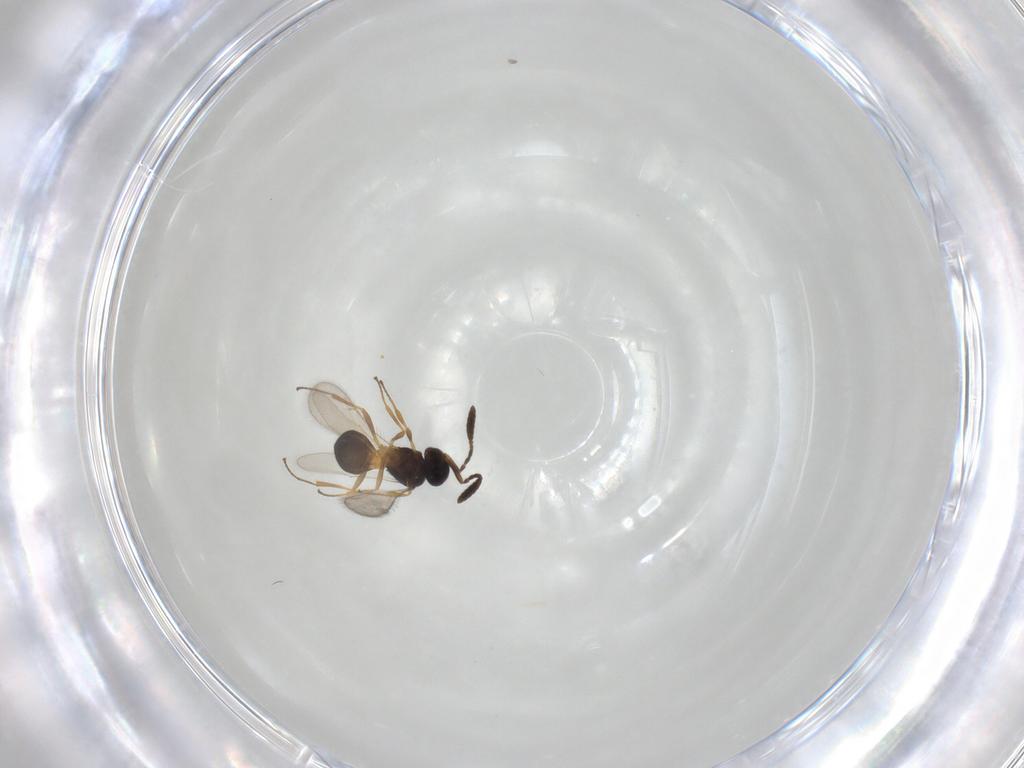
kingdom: Animalia
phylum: Arthropoda
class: Insecta
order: Hymenoptera
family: Scelionidae
